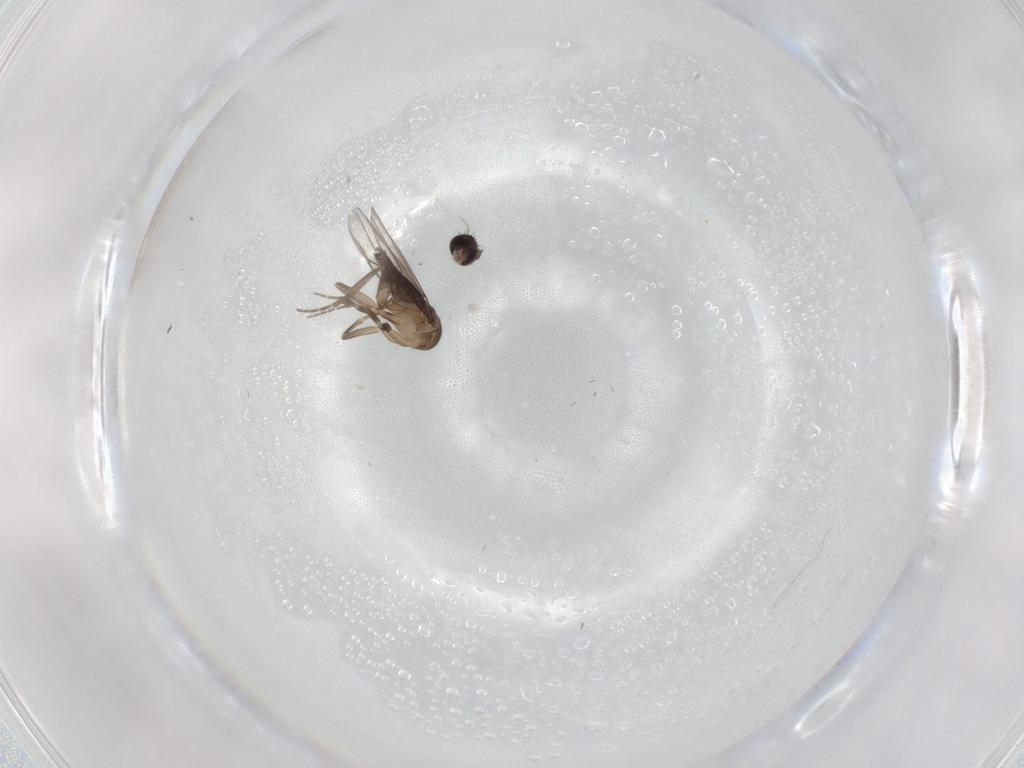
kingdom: Animalia
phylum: Arthropoda
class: Insecta
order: Diptera
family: Phoridae
